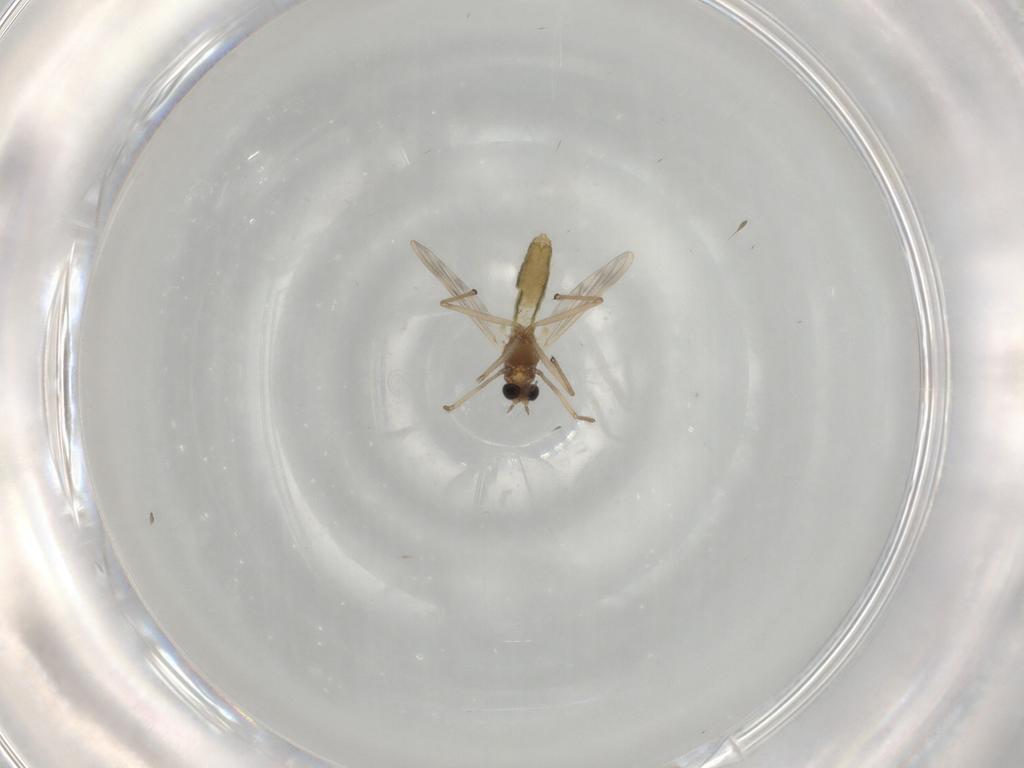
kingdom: Animalia
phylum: Arthropoda
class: Insecta
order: Diptera
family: Chironomidae
